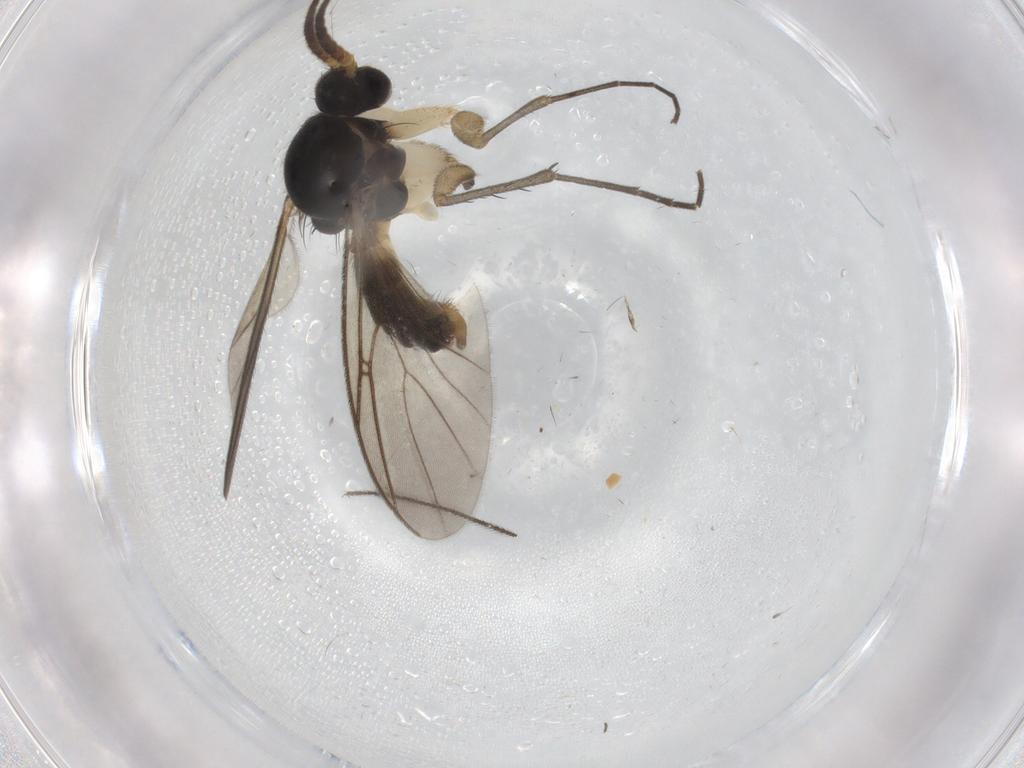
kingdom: Animalia
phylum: Arthropoda
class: Insecta
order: Diptera
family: Mycetophilidae
